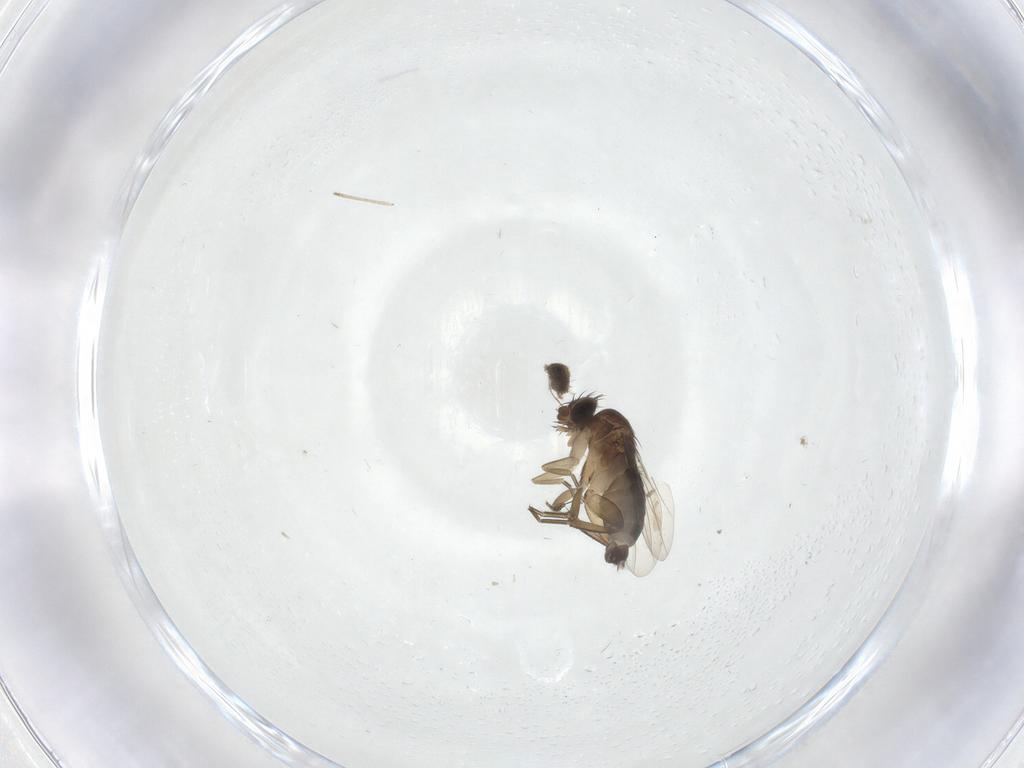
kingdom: Animalia
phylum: Arthropoda
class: Insecta
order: Diptera
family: Phoridae
